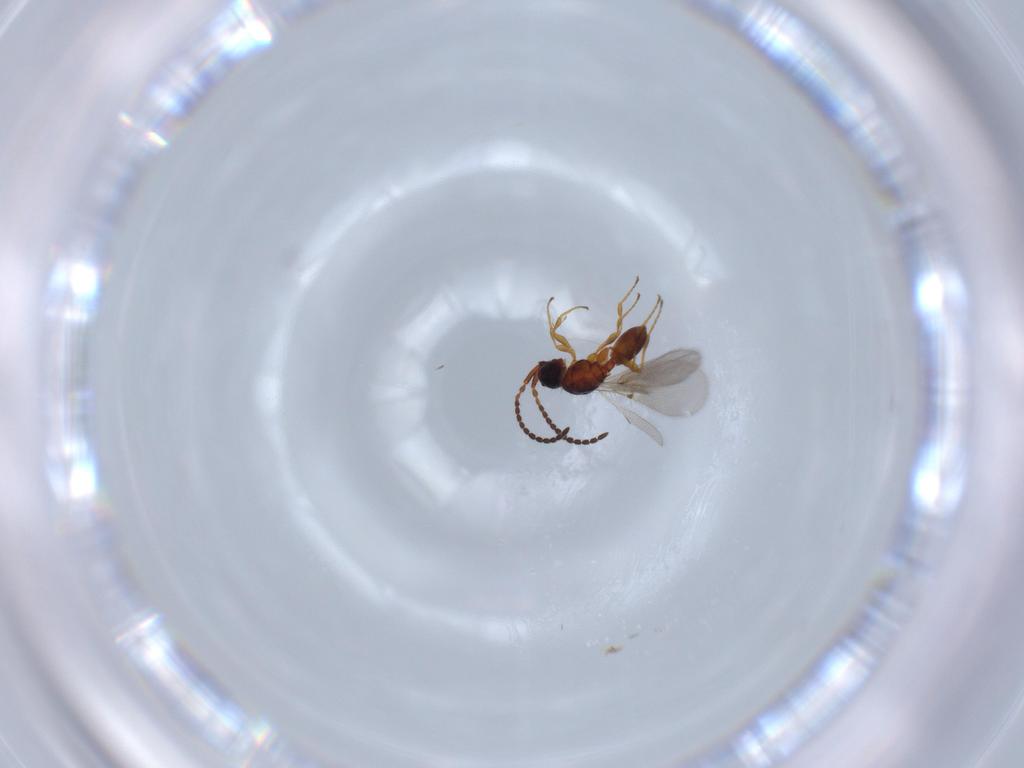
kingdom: Animalia
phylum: Arthropoda
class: Insecta
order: Hymenoptera
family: Diapriidae
